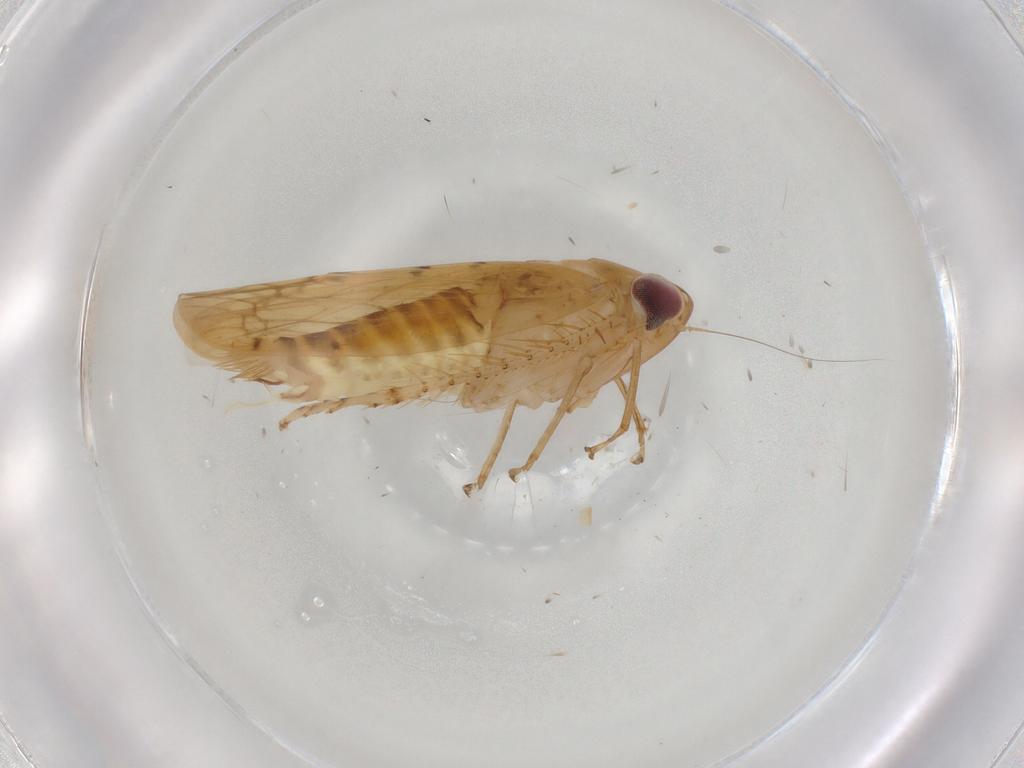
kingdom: Animalia
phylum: Arthropoda
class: Insecta
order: Hemiptera
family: Cicadellidae
